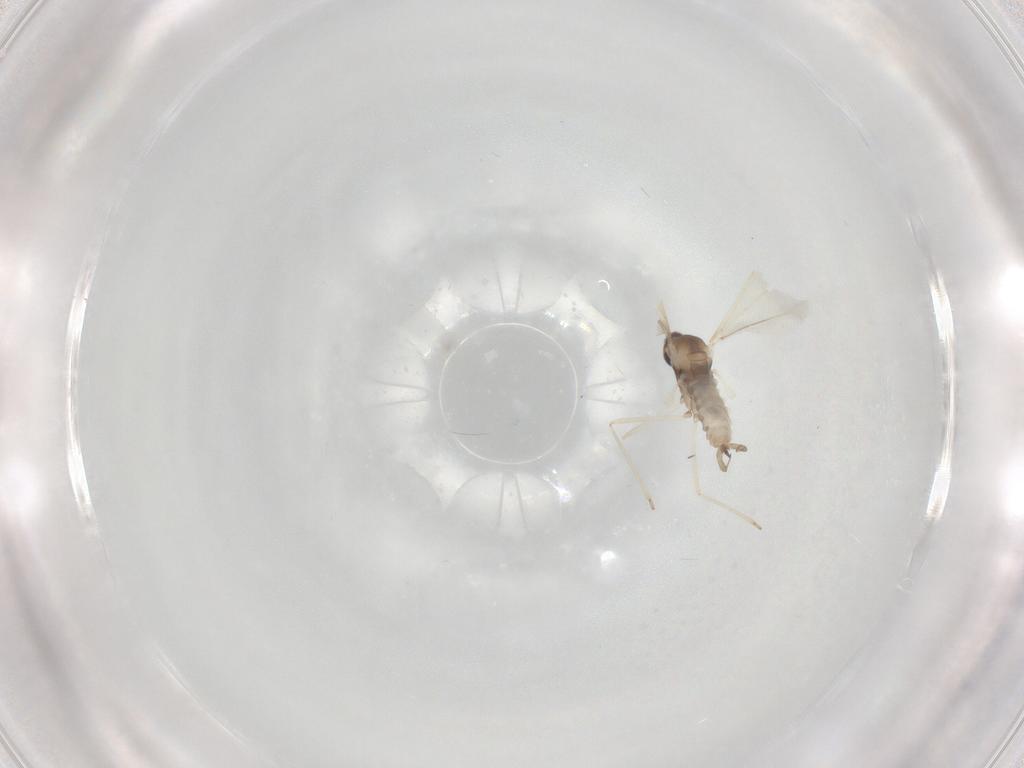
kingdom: Animalia
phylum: Arthropoda
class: Insecta
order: Diptera
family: Cecidomyiidae
